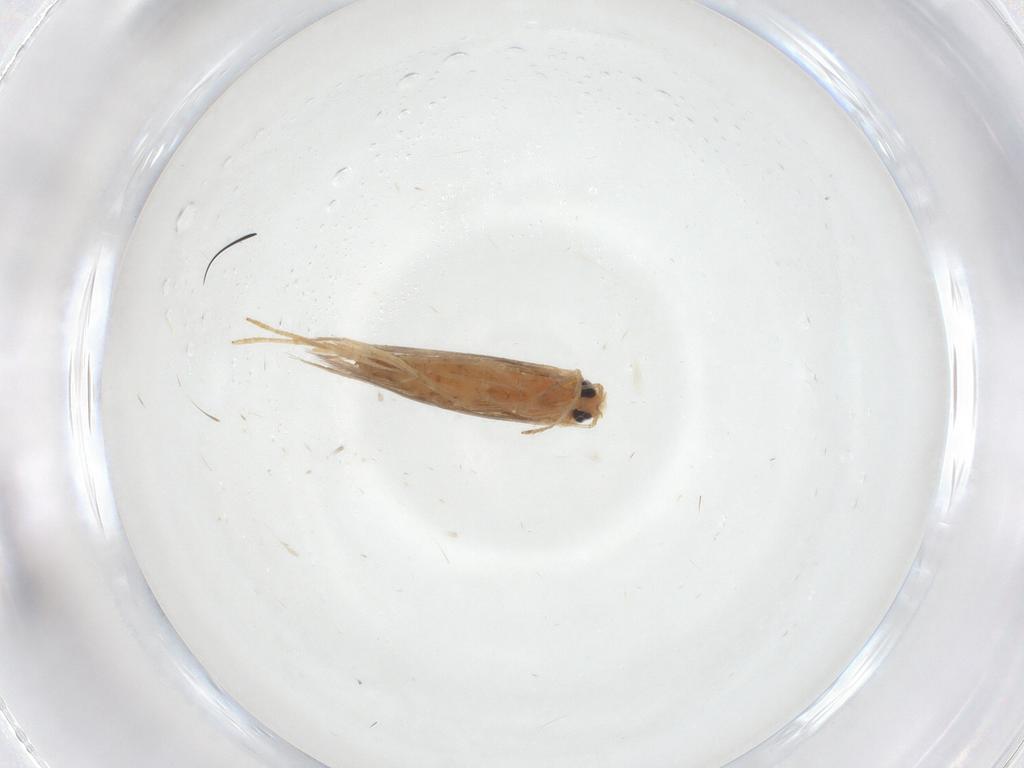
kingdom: Animalia
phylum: Arthropoda
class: Insecta
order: Lepidoptera
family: Tischeriidae
